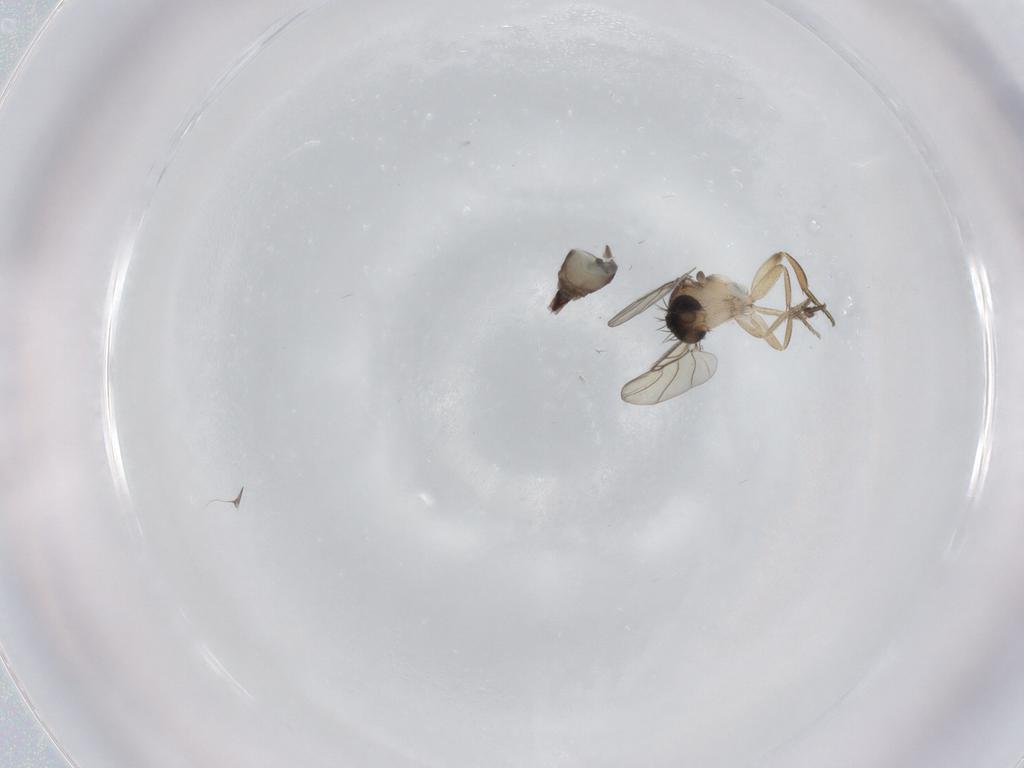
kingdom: Animalia
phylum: Arthropoda
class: Insecta
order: Diptera
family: Phoridae
